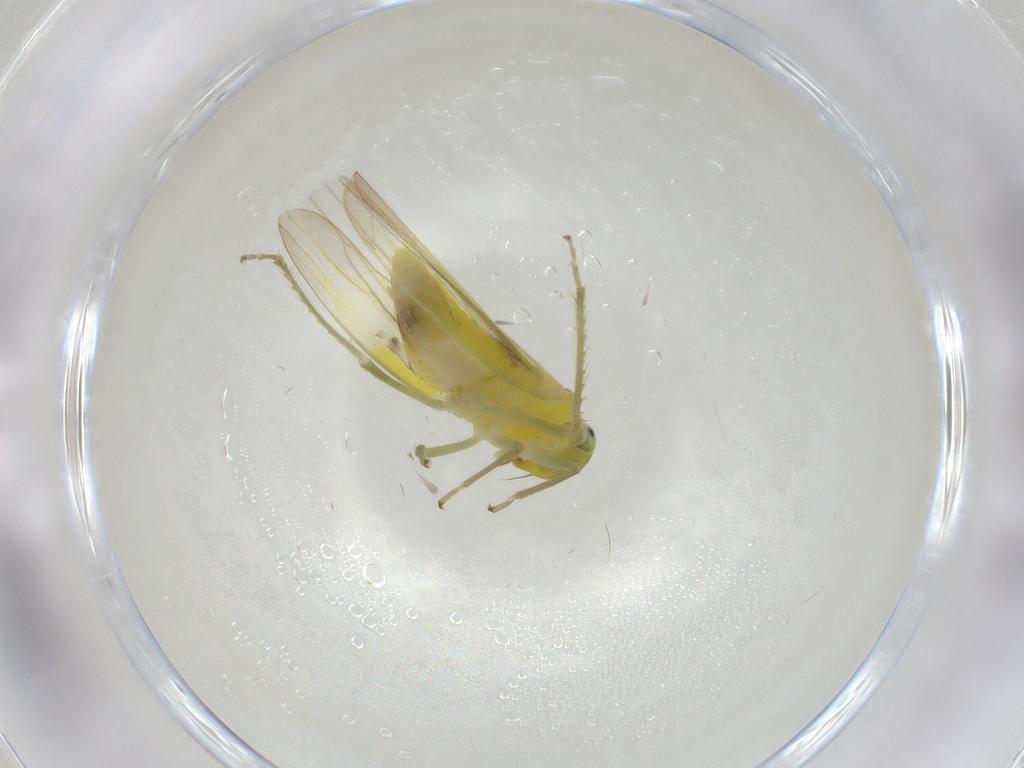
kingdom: Animalia
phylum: Arthropoda
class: Insecta
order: Hemiptera
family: Cicadellidae
